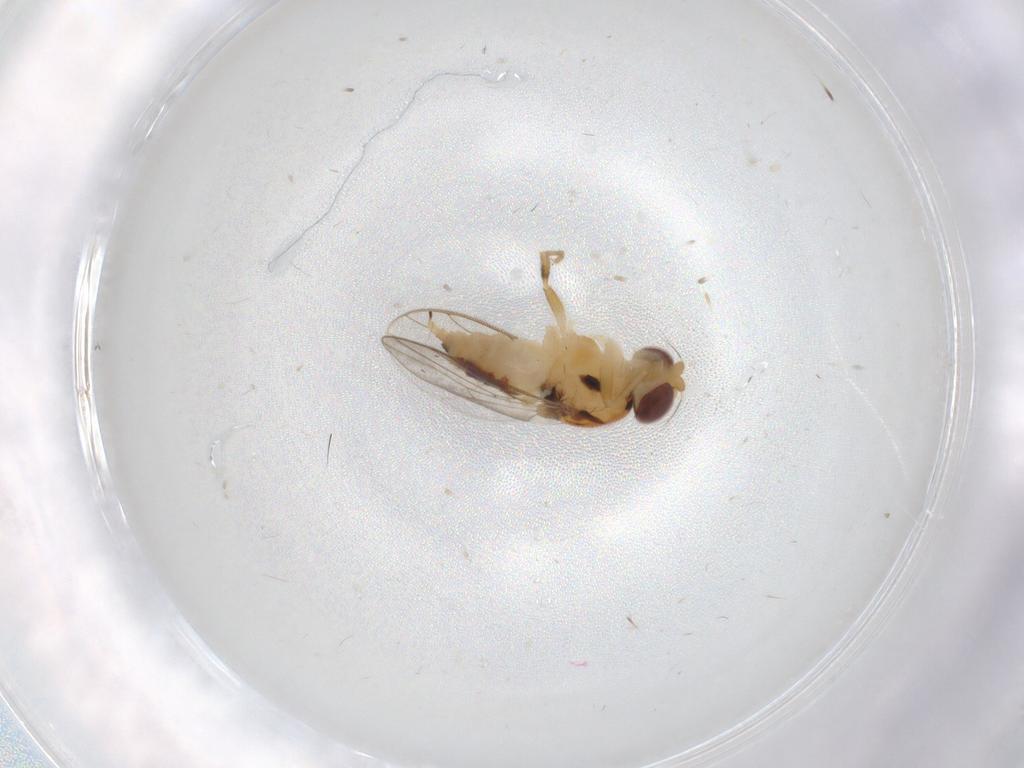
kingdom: Animalia
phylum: Arthropoda
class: Insecta
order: Diptera
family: Chloropidae
